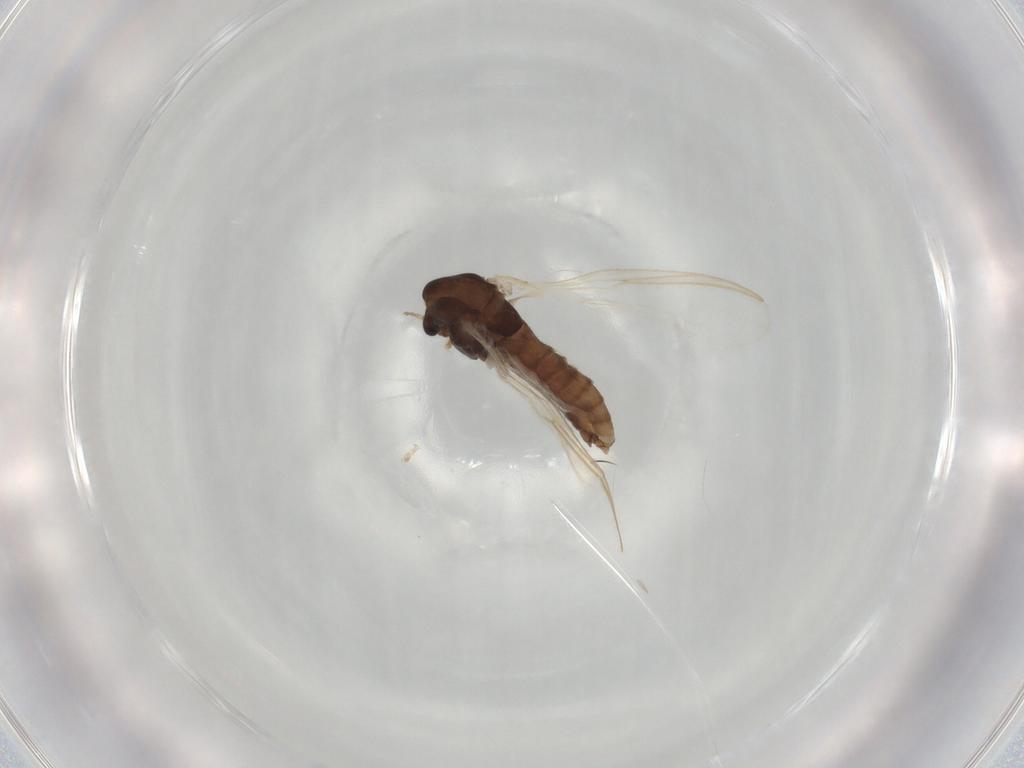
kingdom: Animalia
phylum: Arthropoda
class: Insecta
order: Diptera
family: Chironomidae
